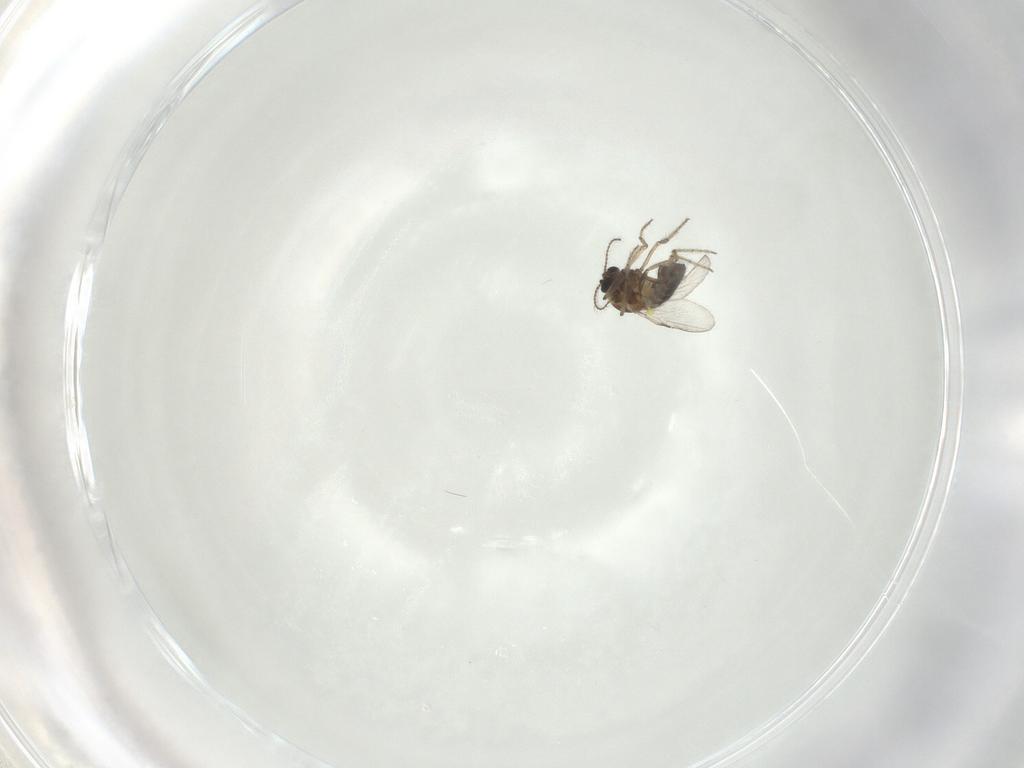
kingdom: Animalia
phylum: Arthropoda
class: Insecta
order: Diptera
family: Ceratopogonidae
